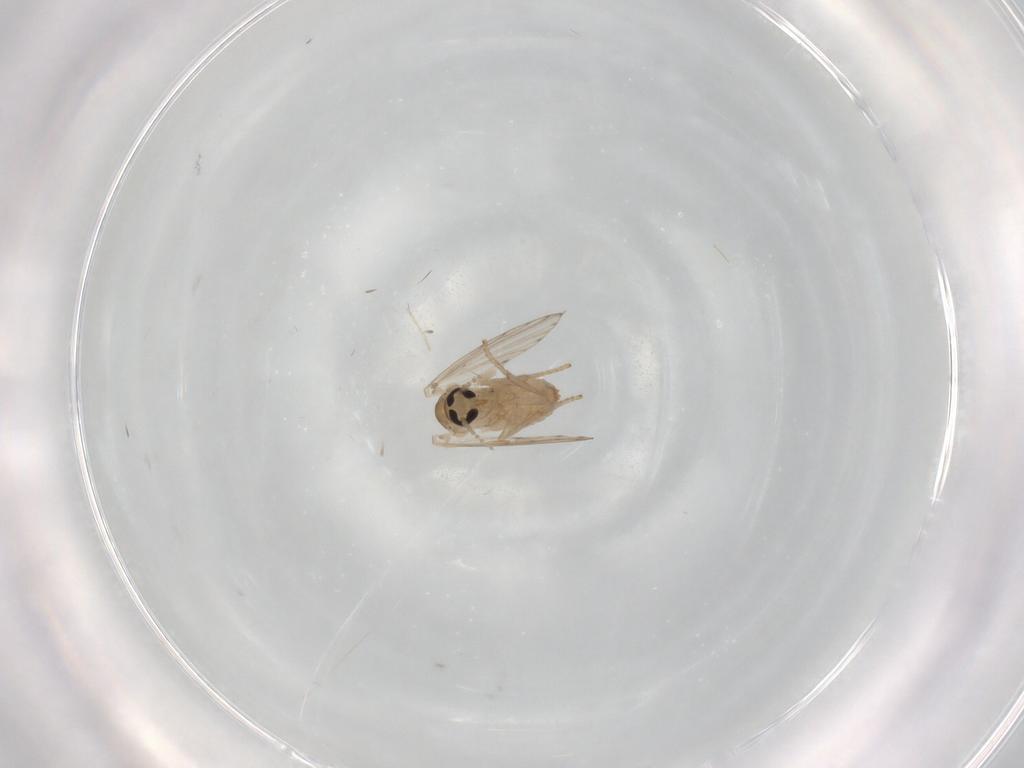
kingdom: Animalia
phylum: Arthropoda
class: Insecta
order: Diptera
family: Psychodidae
